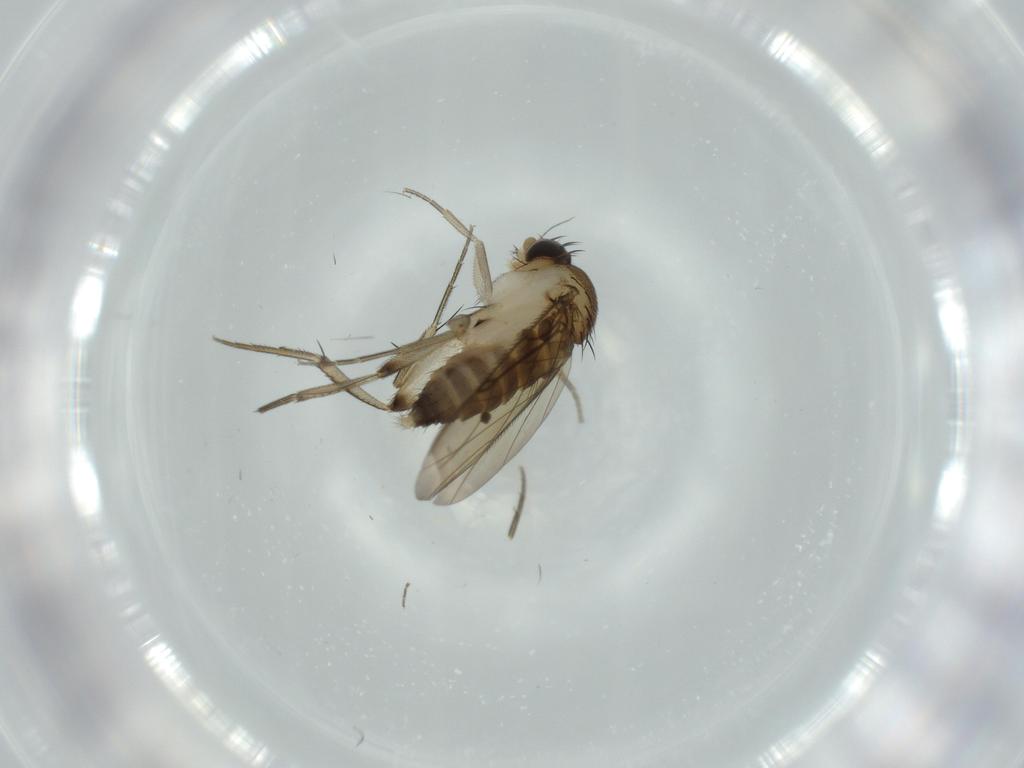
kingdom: Animalia
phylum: Arthropoda
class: Insecta
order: Diptera
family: Phoridae
